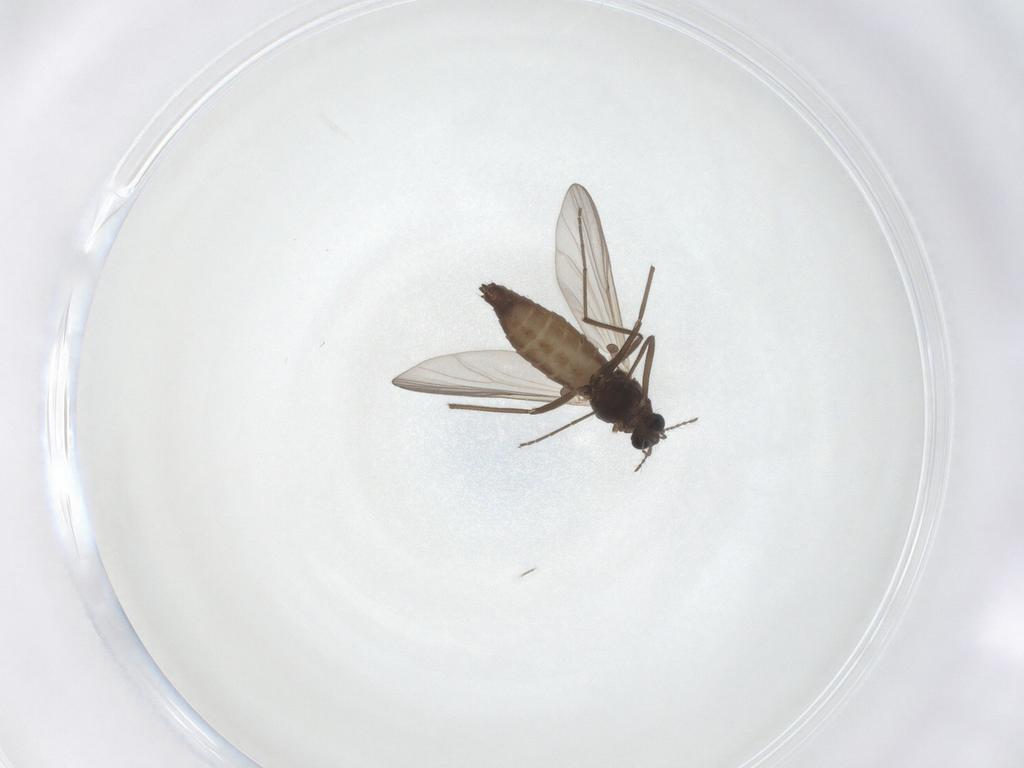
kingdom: Animalia
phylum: Arthropoda
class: Insecta
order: Diptera
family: Chironomidae
